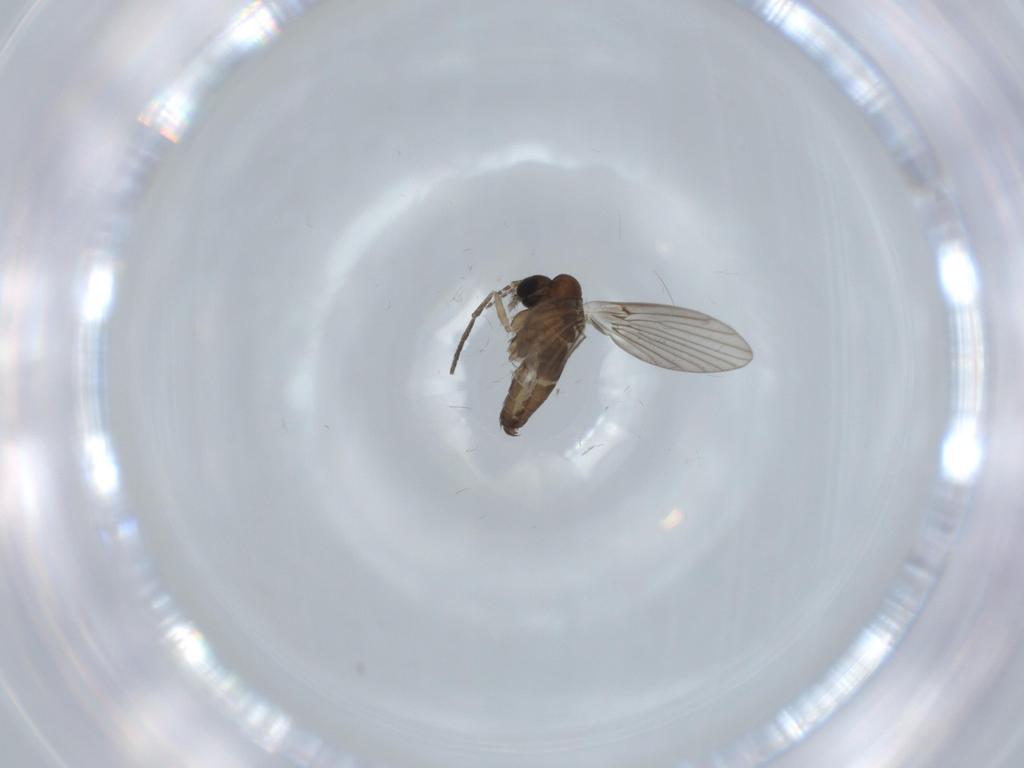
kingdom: Animalia
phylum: Arthropoda
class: Insecta
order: Diptera
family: Chloropidae
